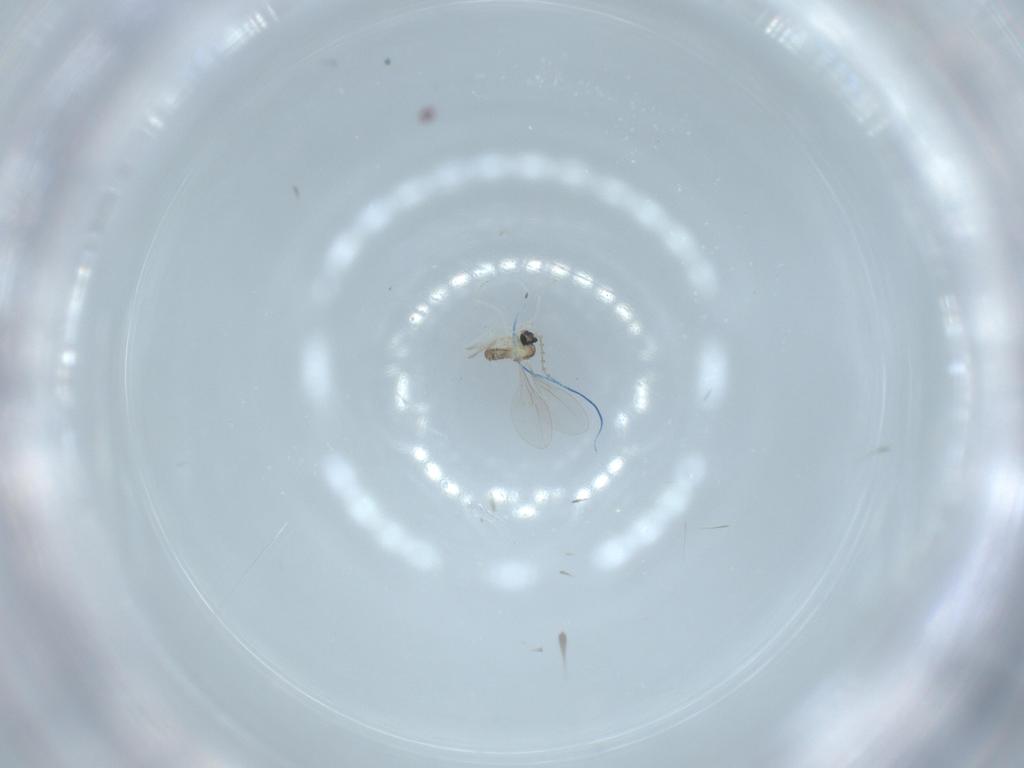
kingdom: Animalia
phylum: Arthropoda
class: Insecta
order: Diptera
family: Cecidomyiidae
